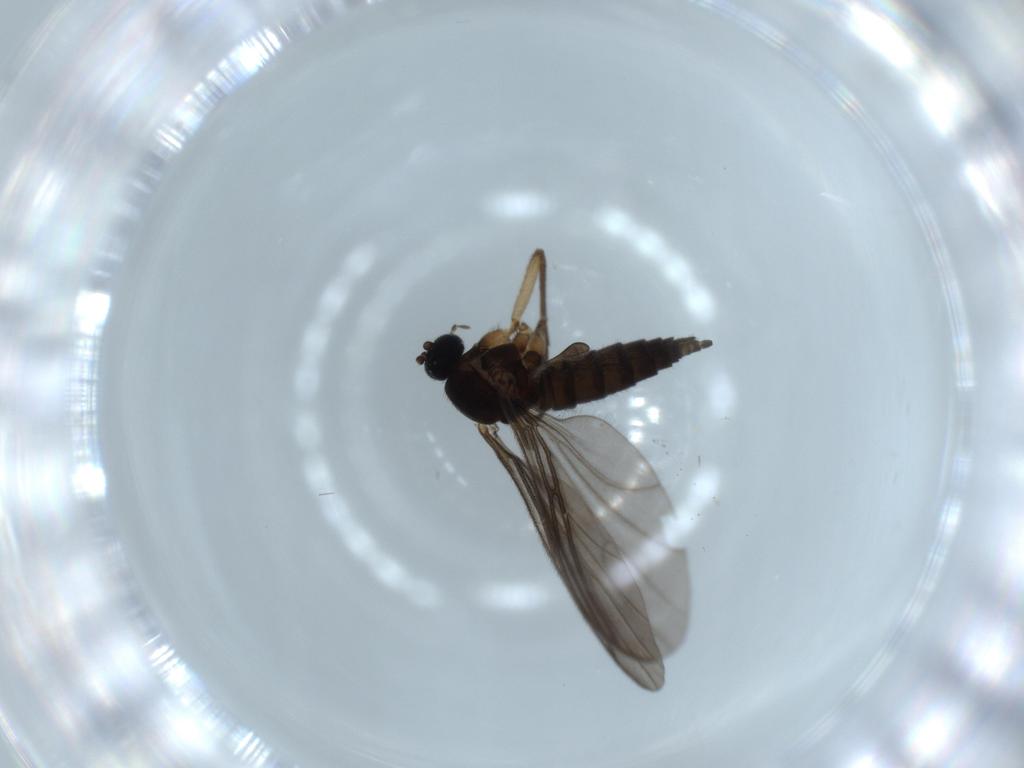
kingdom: Animalia
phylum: Arthropoda
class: Insecta
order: Diptera
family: Sciaridae
